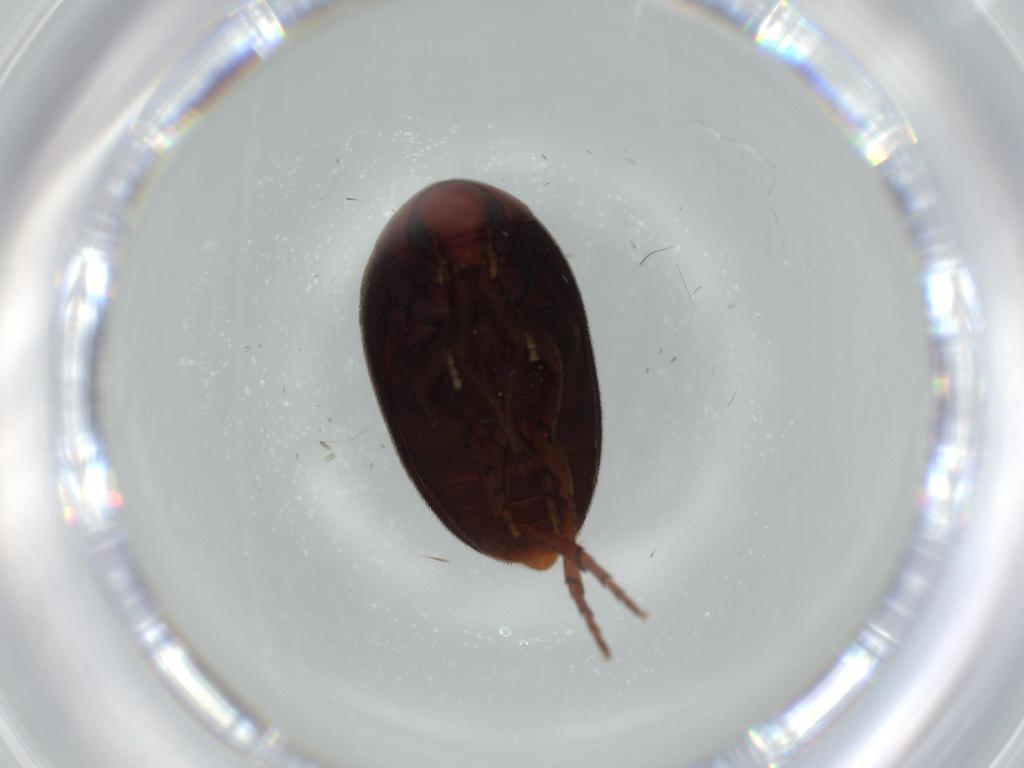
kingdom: Animalia
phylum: Arthropoda
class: Insecta
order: Coleoptera
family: Eucinetidae
